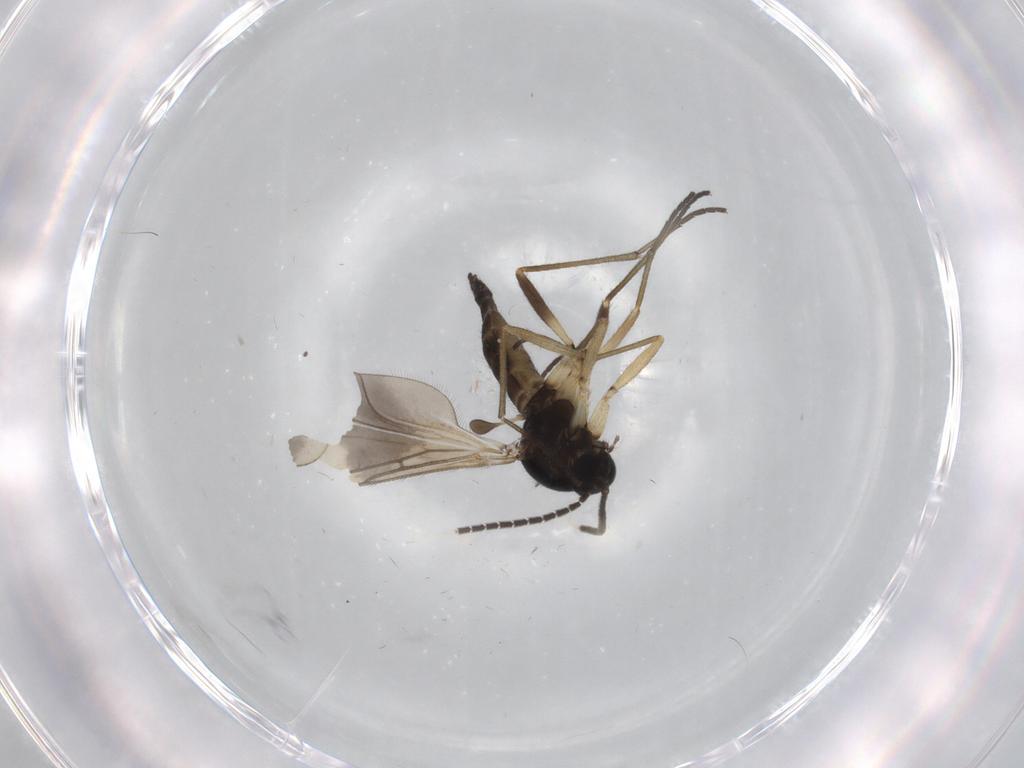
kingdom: Animalia
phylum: Arthropoda
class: Insecta
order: Diptera
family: Sciaridae
